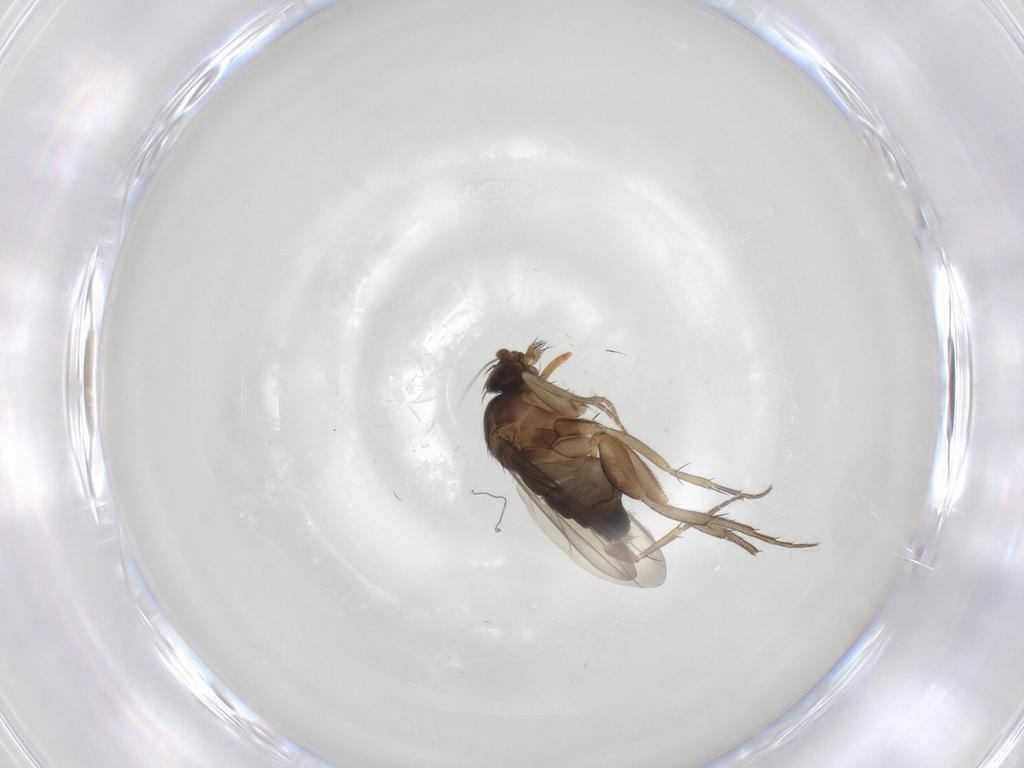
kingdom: Animalia
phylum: Arthropoda
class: Insecta
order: Diptera
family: Phoridae
